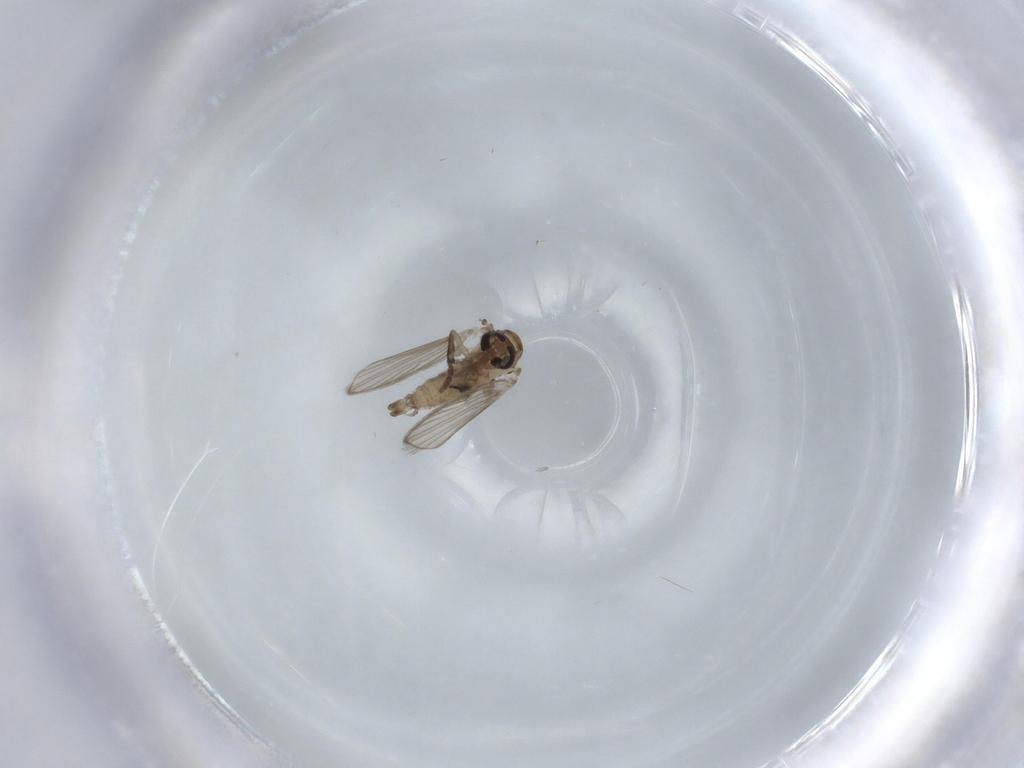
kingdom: Animalia
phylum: Arthropoda
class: Insecta
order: Diptera
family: Psychodidae
